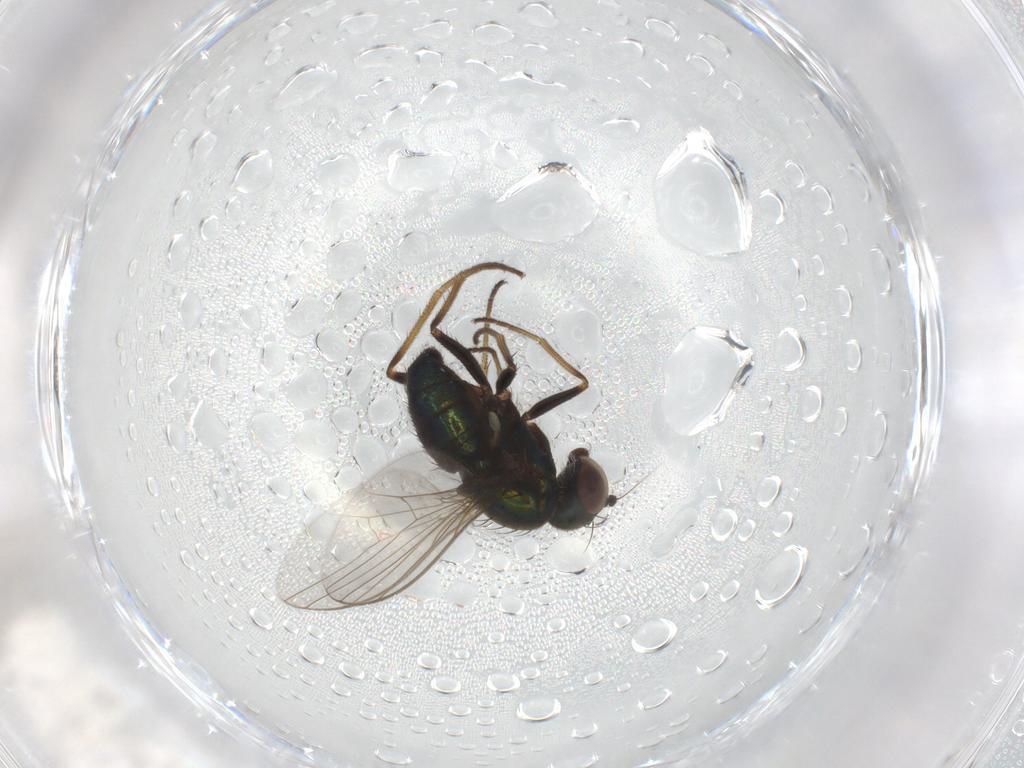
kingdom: Animalia
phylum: Arthropoda
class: Insecta
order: Diptera
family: Dolichopodidae
